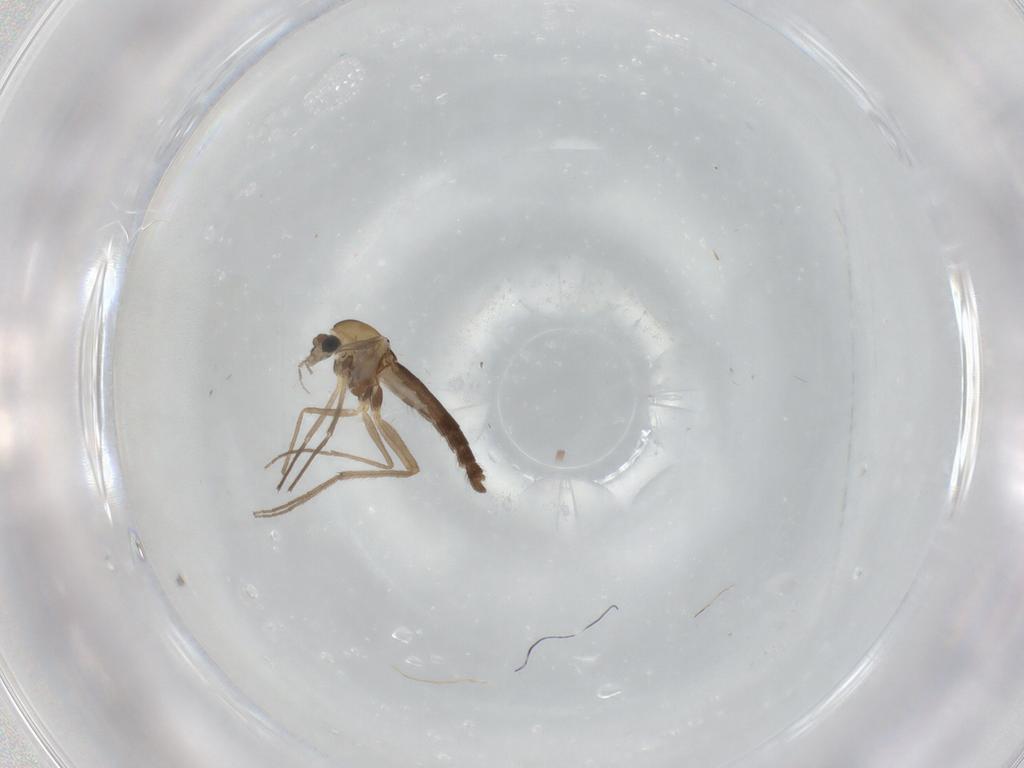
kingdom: Animalia
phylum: Arthropoda
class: Insecta
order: Diptera
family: Chironomidae
